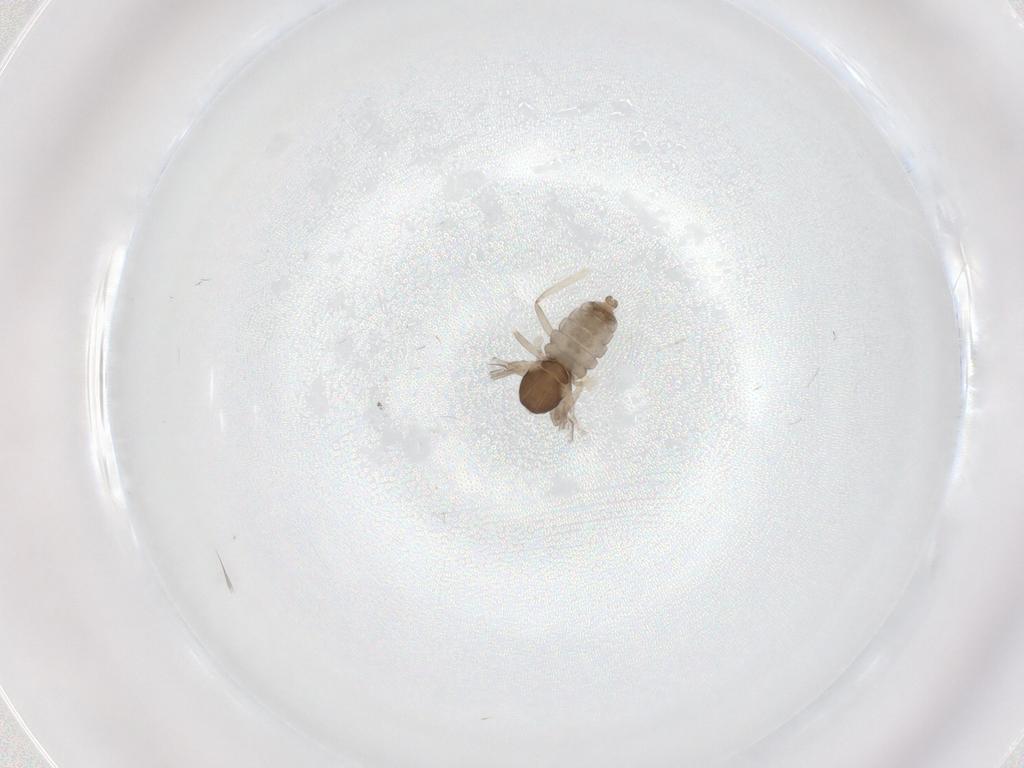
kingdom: Animalia
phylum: Arthropoda
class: Insecta
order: Diptera
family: Cecidomyiidae
